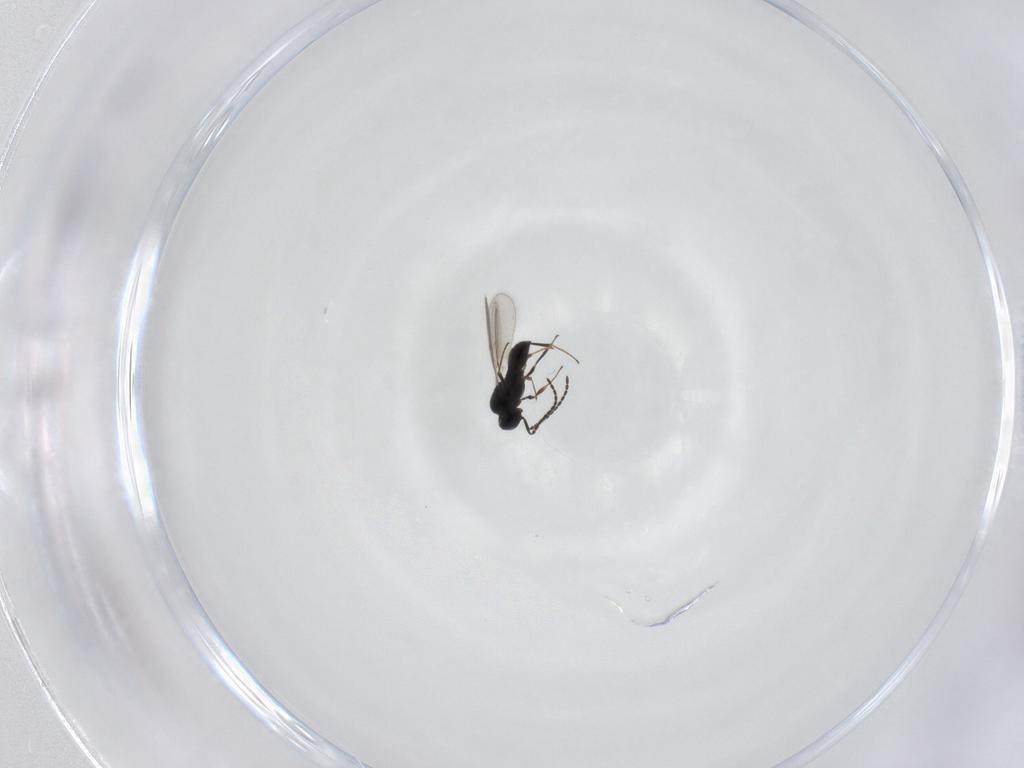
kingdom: Animalia
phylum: Arthropoda
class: Insecta
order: Hymenoptera
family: Scelionidae
